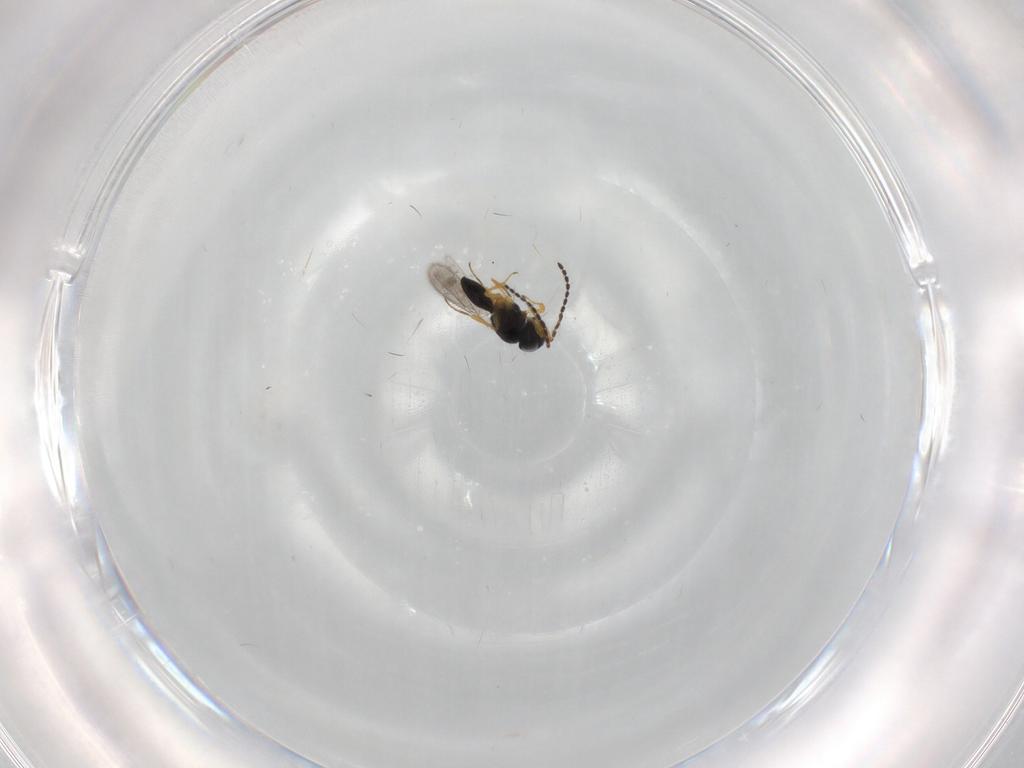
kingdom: Animalia
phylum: Arthropoda
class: Insecta
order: Hymenoptera
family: Scelionidae
